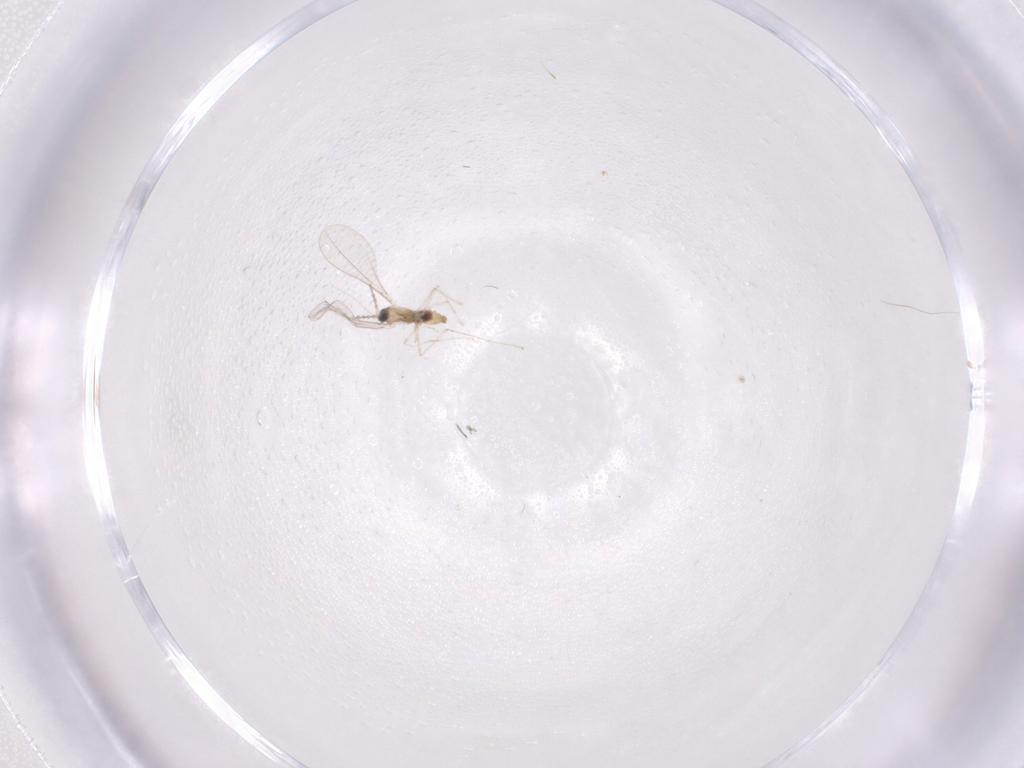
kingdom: Animalia
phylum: Arthropoda
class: Insecta
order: Diptera
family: Cecidomyiidae
